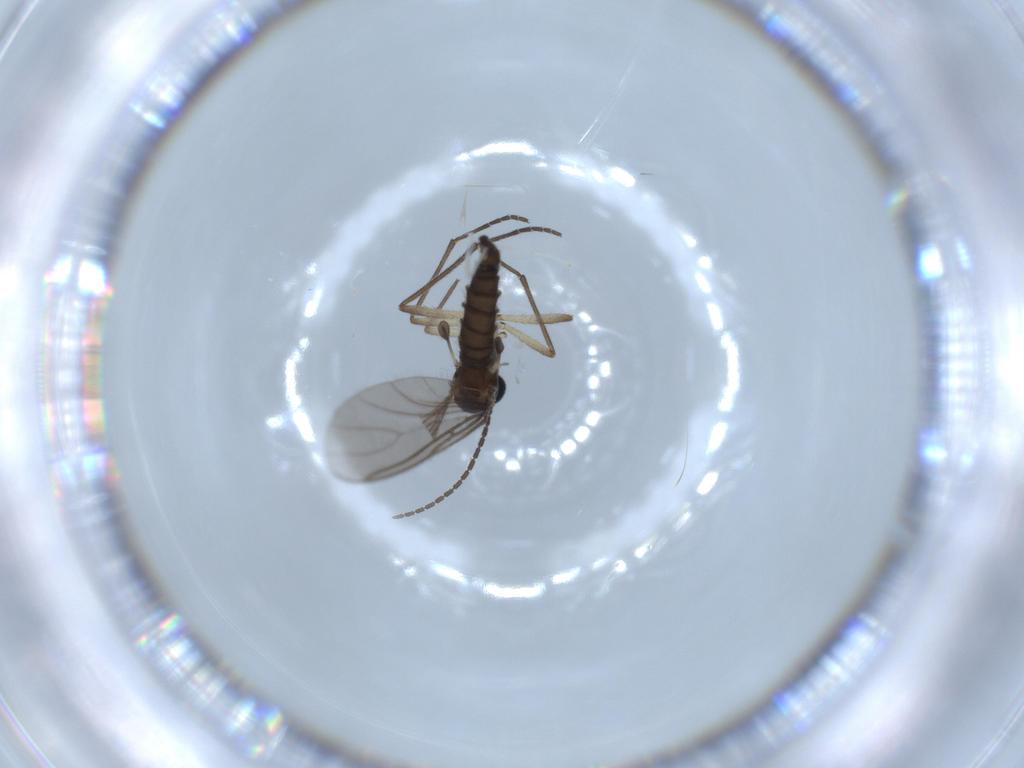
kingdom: Animalia
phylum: Arthropoda
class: Insecta
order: Diptera
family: Sciaridae
